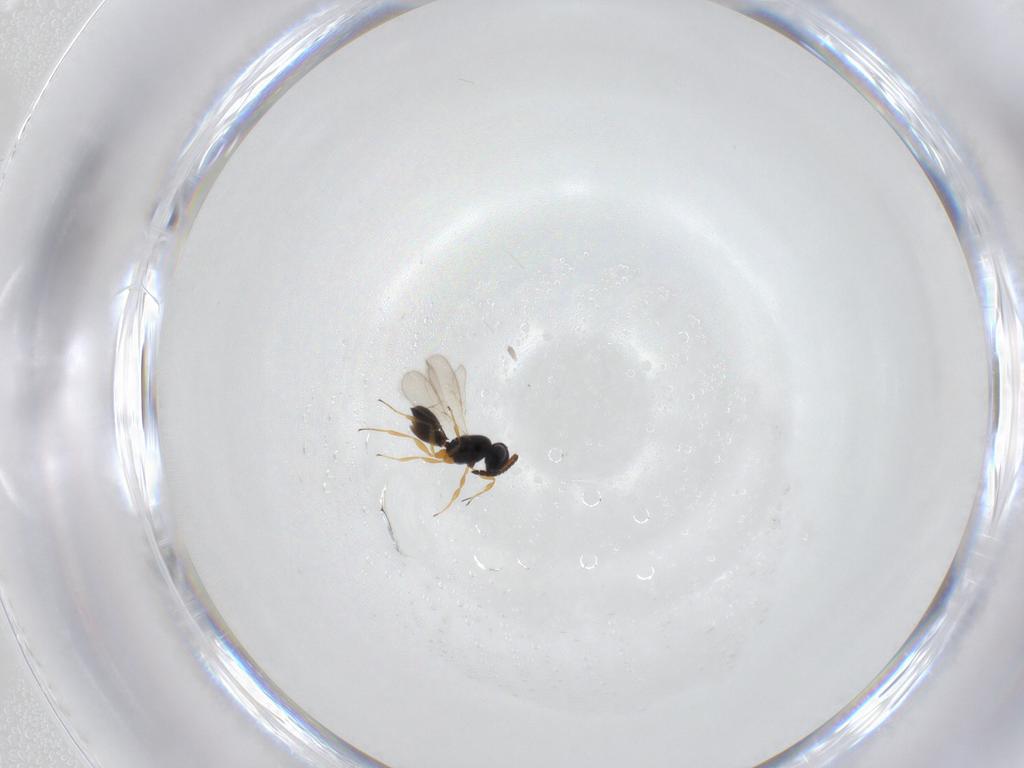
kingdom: Animalia
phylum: Arthropoda
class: Insecta
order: Hymenoptera
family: Scelionidae
